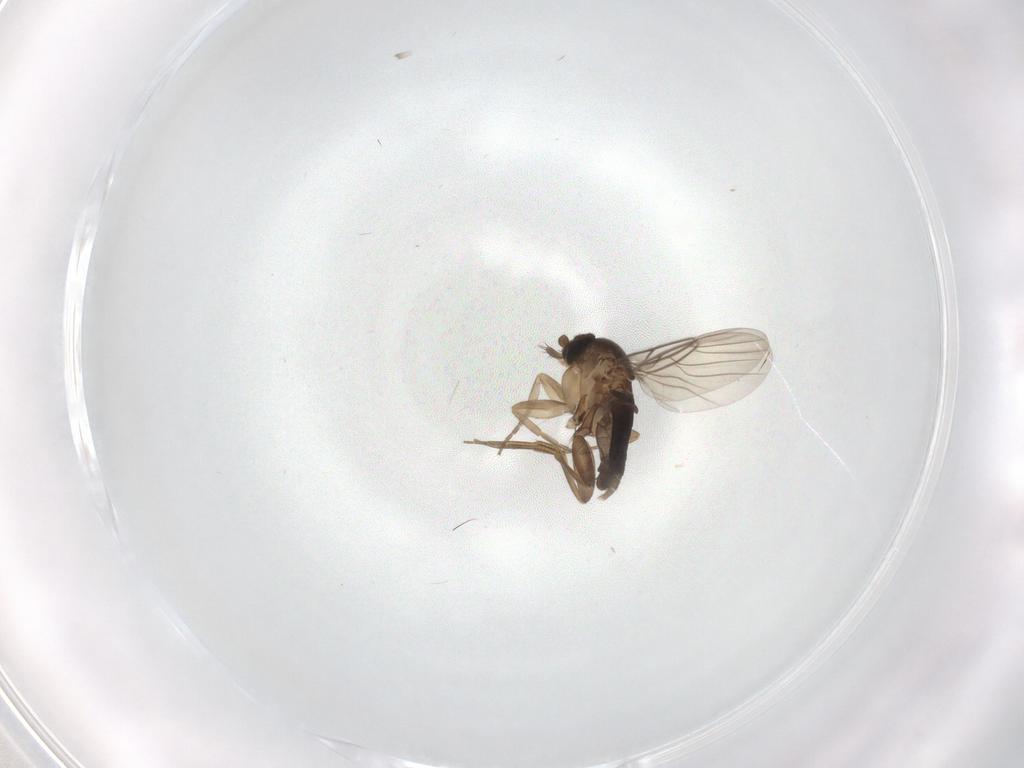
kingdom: Animalia
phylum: Arthropoda
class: Insecta
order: Diptera
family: Phoridae
